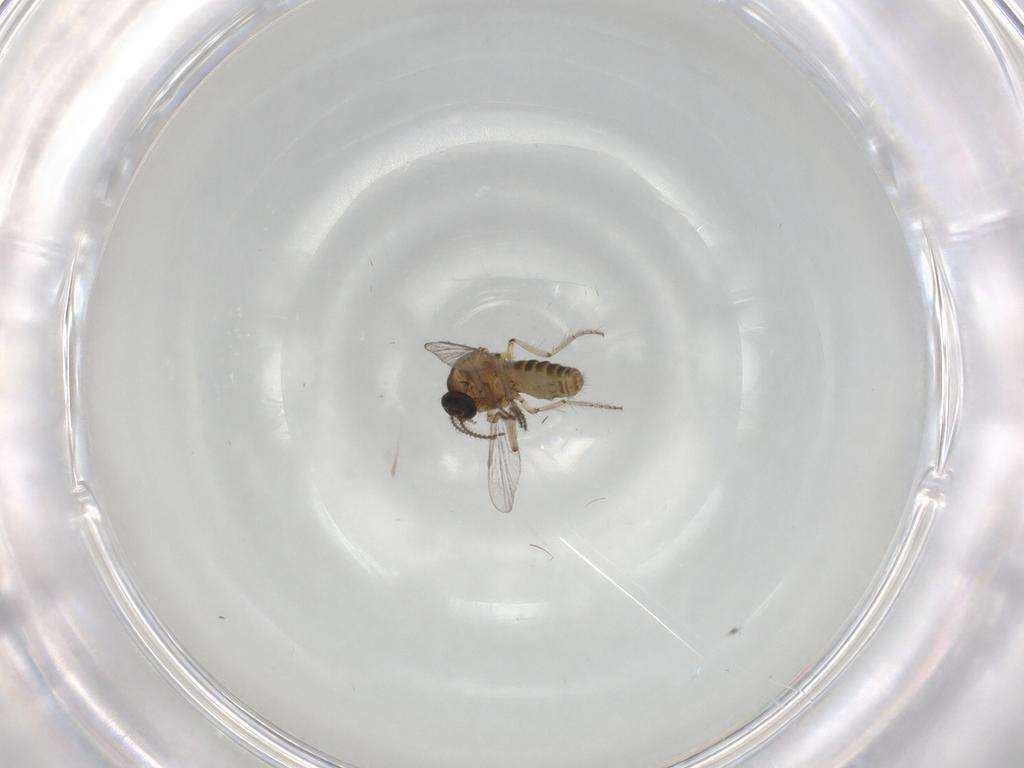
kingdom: Animalia
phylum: Arthropoda
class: Insecta
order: Diptera
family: Ceratopogonidae
